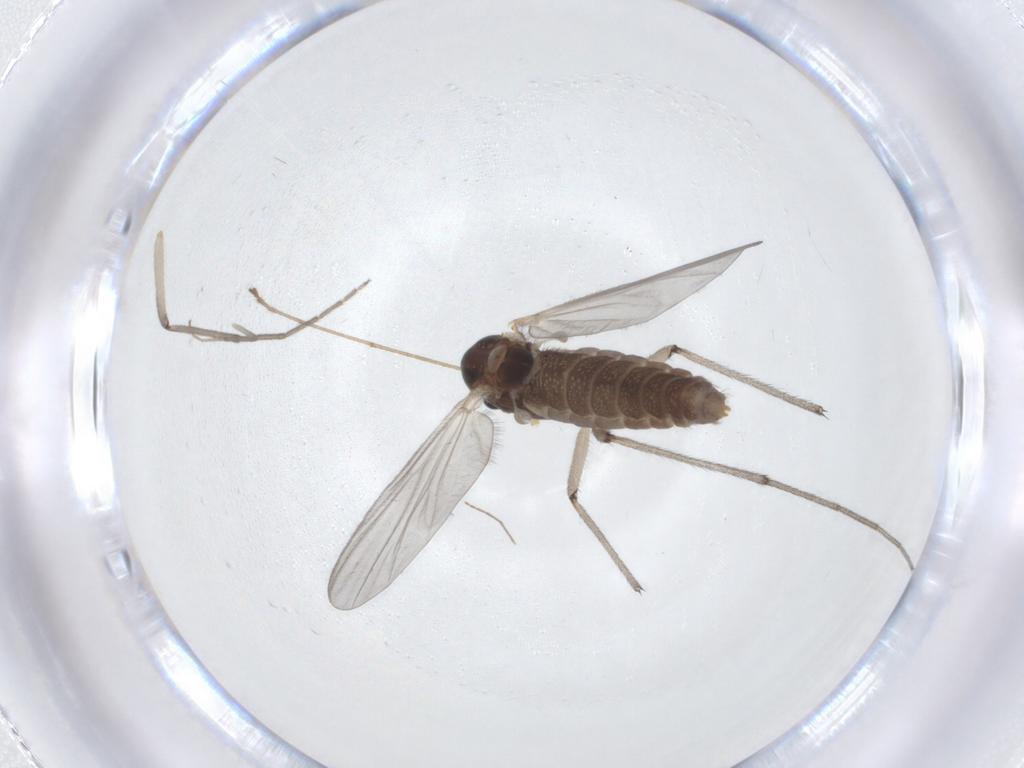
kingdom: Animalia
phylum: Arthropoda
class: Insecta
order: Diptera
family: Chironomidae
